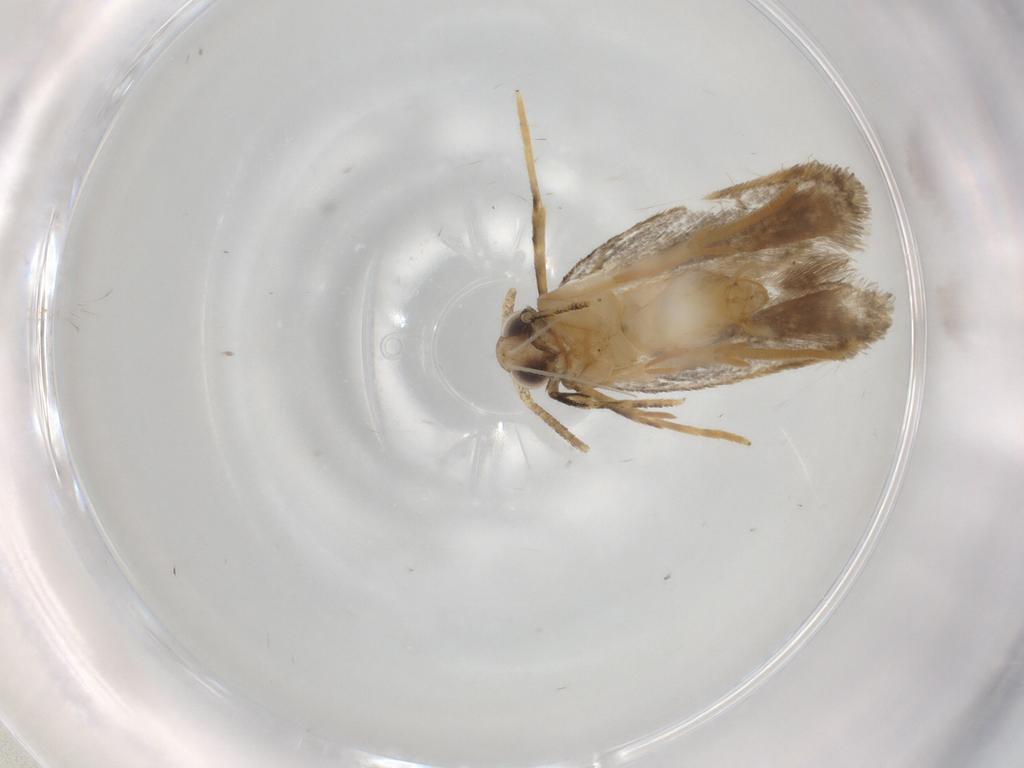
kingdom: Animalia
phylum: Arthropoda
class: Insecta
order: Lepidoptera
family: Autostichidae
